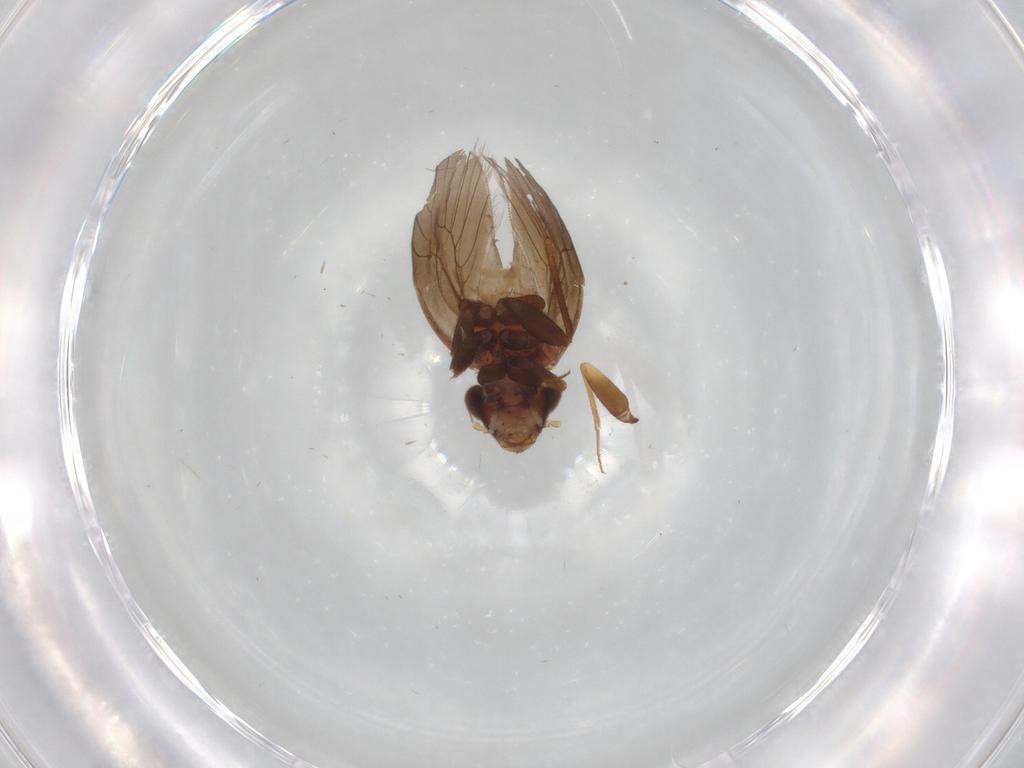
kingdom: Animalia
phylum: Arthropoda
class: Insecta
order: Psocodea
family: Lepidopsocidae
